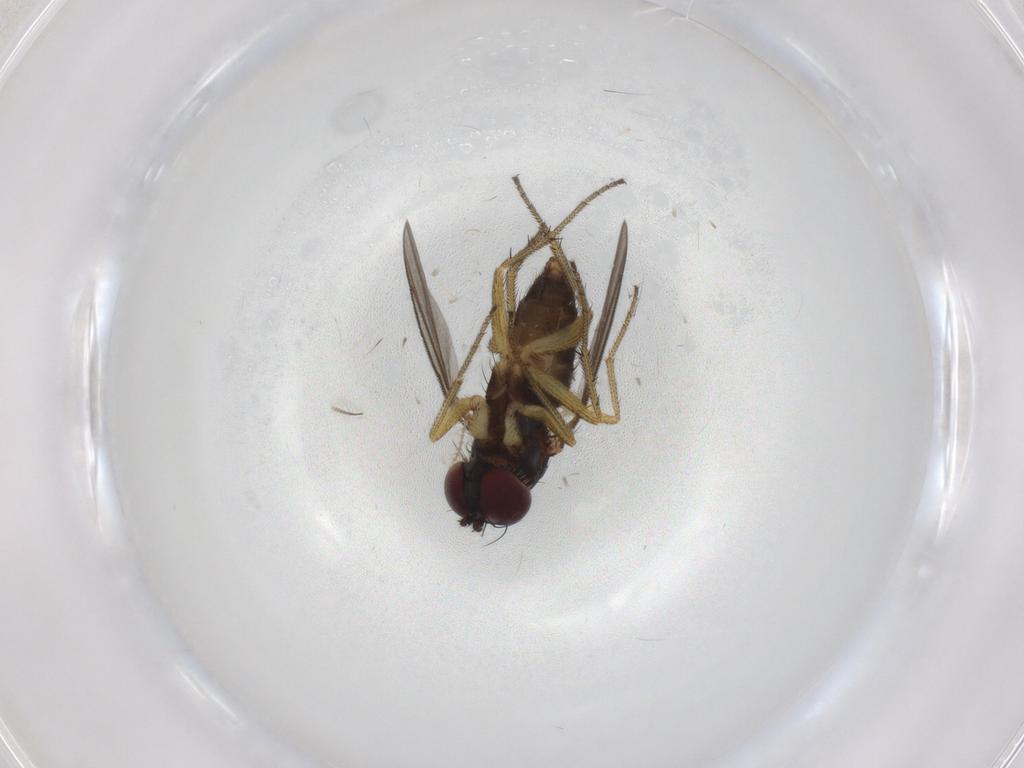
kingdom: Animalia
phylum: Arthropoda
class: Insecta
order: Diptera
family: Dolichopodidae
